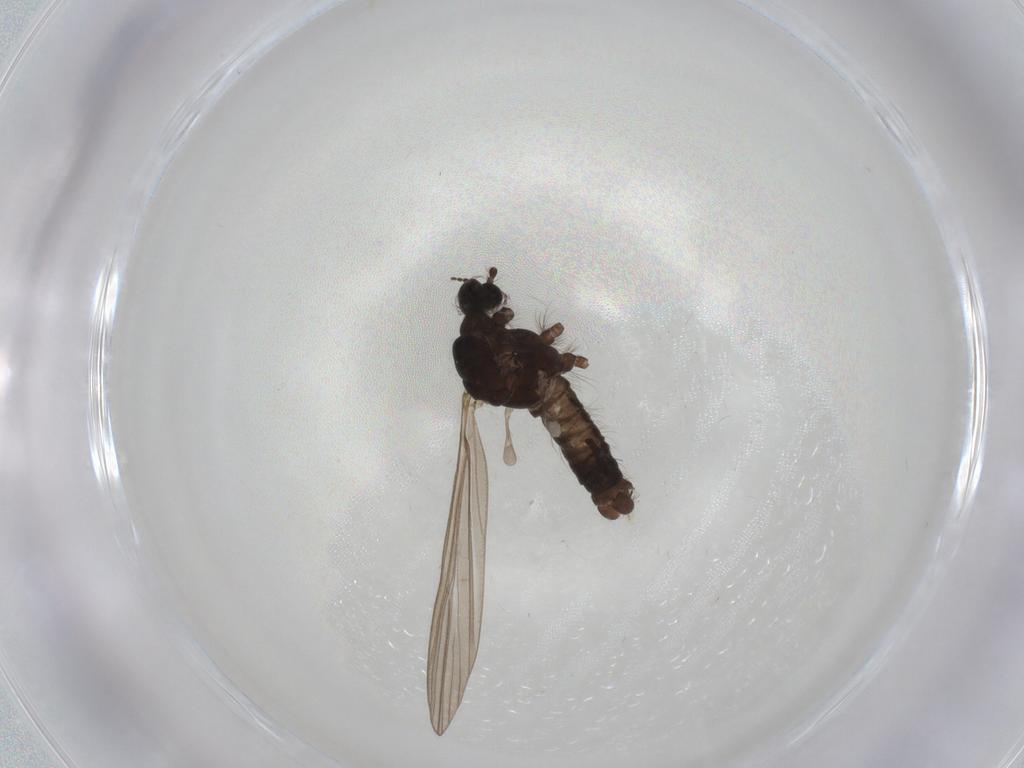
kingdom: Animalia
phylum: Arthropoda
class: Insecta
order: Diptera
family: Limoniidae
